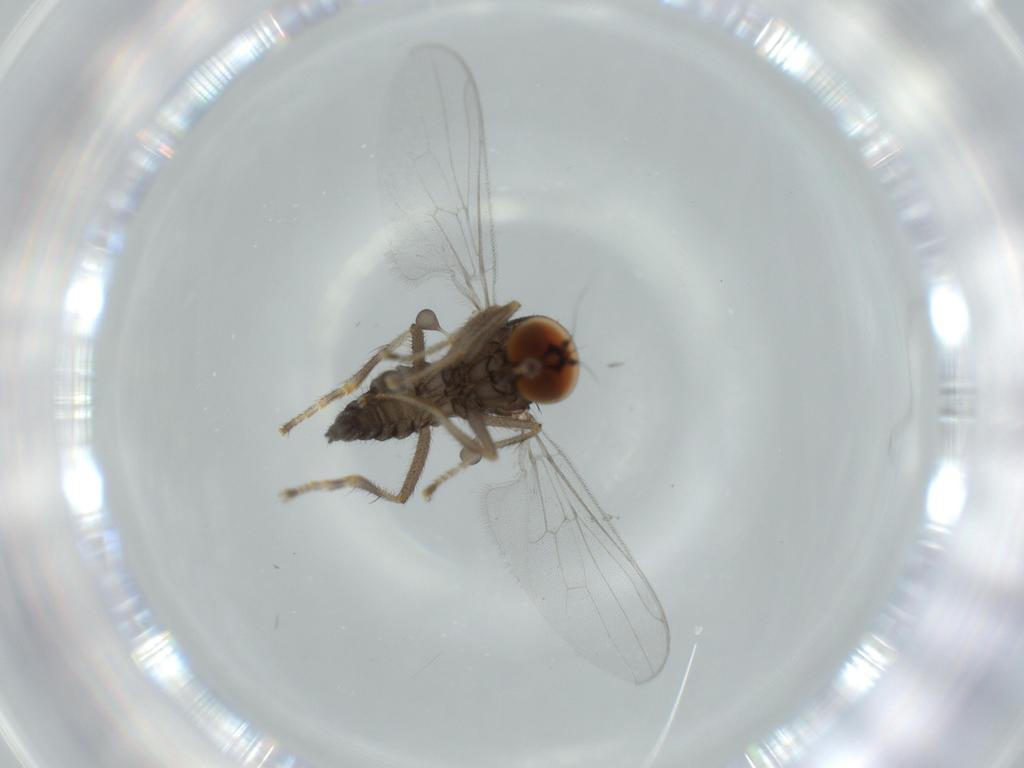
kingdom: Animalia
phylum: Arthropoda
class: Insecta
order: Diptera
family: Hybotidae
